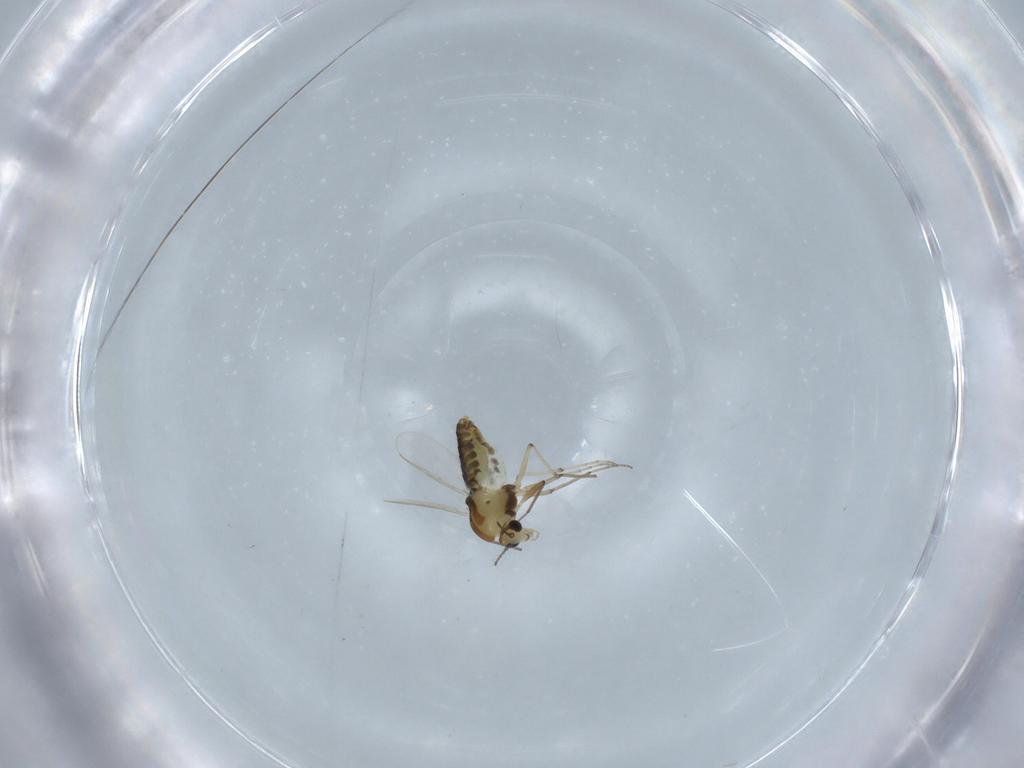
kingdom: Animalia
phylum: Arthropoda
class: Insecta
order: Diptera
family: Chironomidae
